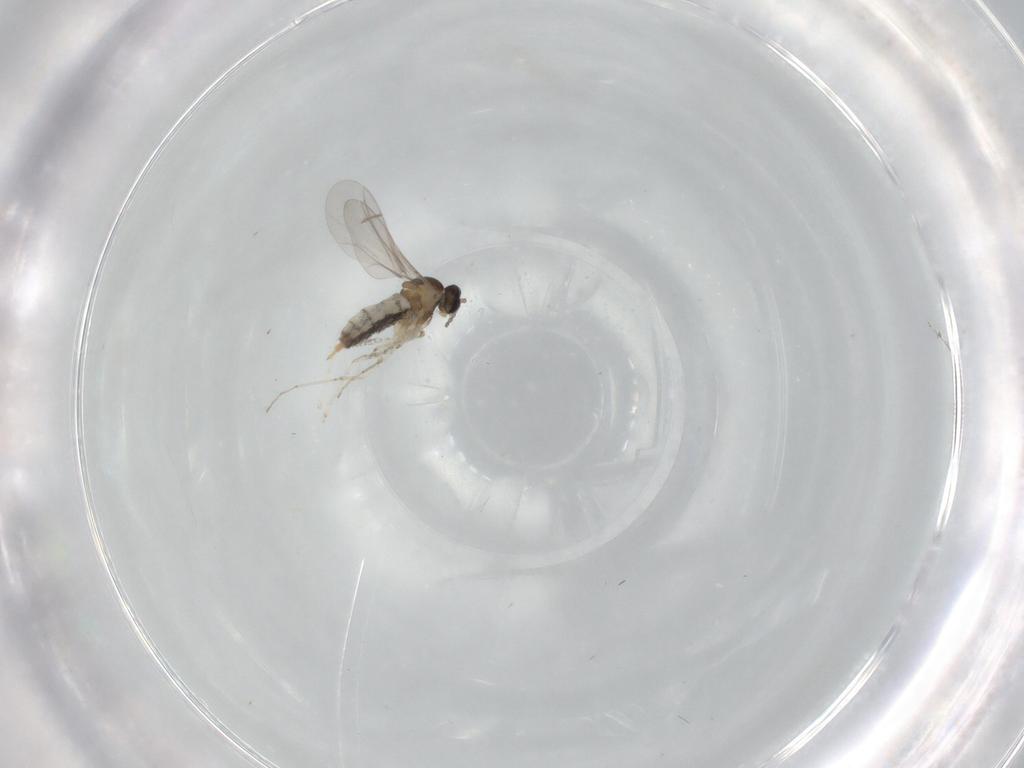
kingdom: Animalia
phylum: Arthropoda
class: Insecta
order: Diptera
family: Cecidomyiidae
